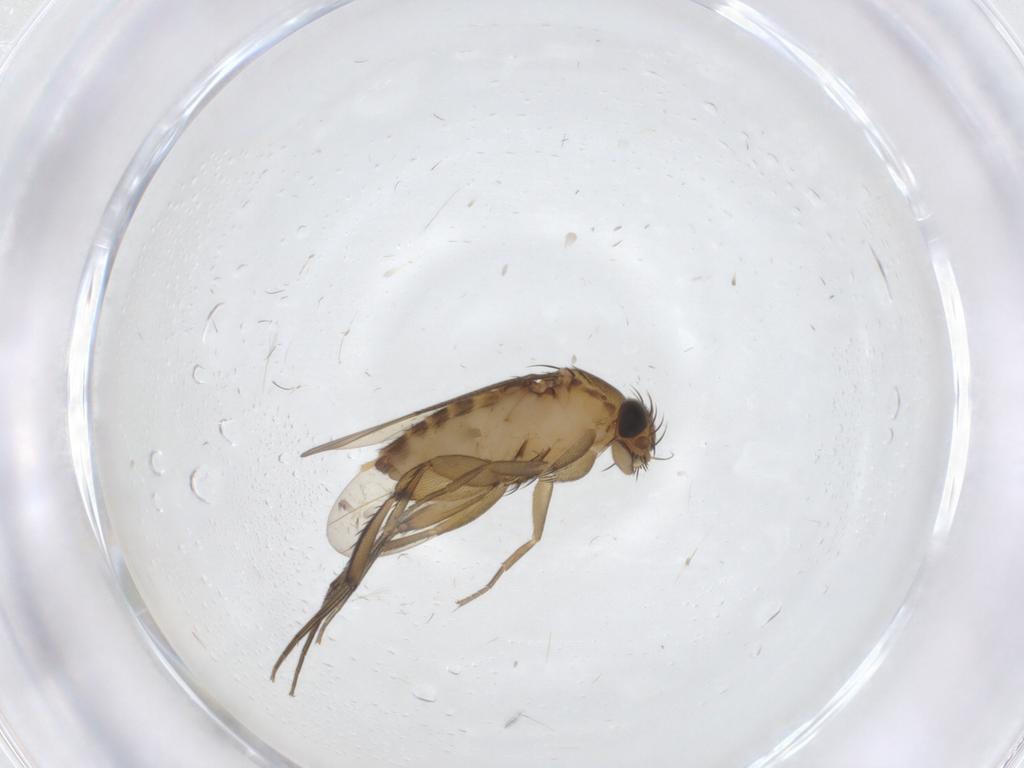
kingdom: Animalia
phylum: Arthropoda
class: Insecta
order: Diptera
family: Phoridae
